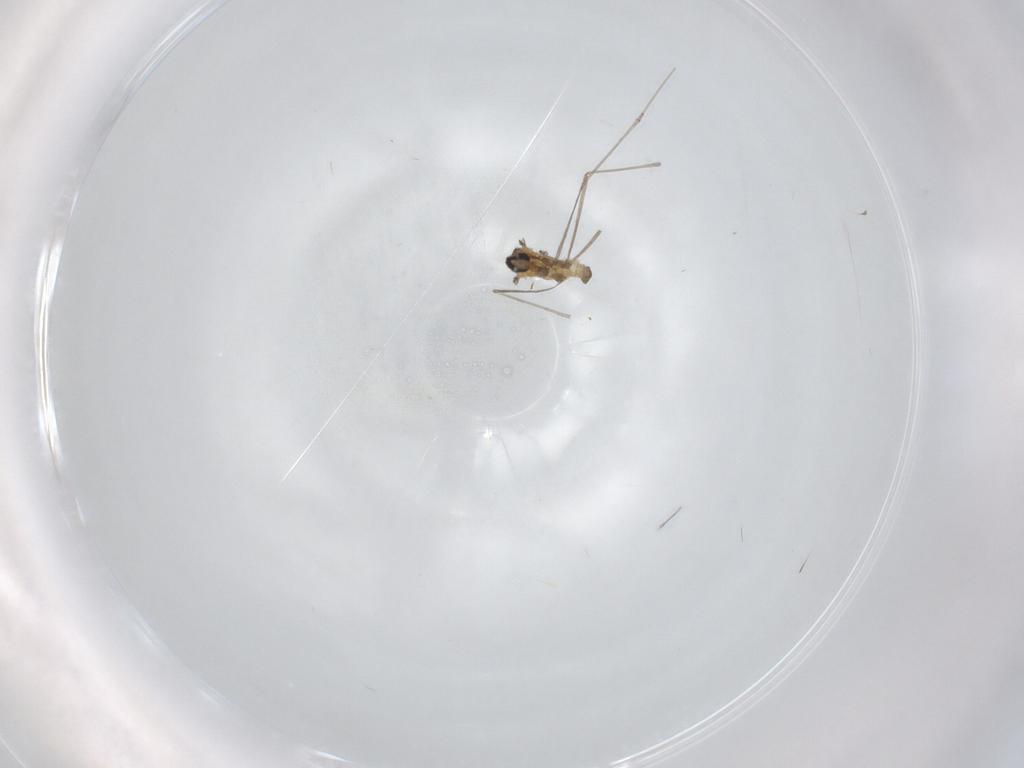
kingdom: Animalia
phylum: Arthropoda
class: Insecta
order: Diptera
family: Cecidomyiidae
